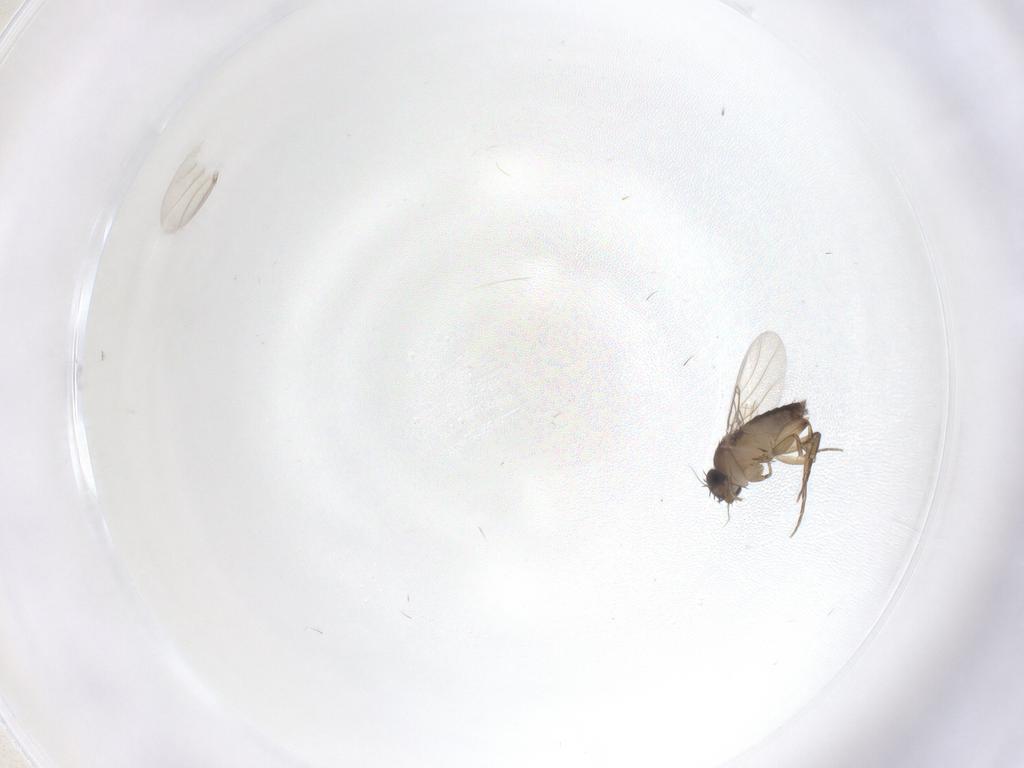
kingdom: Animalia
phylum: Arthropoda
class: Insecta
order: Diptera
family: Phoridae
